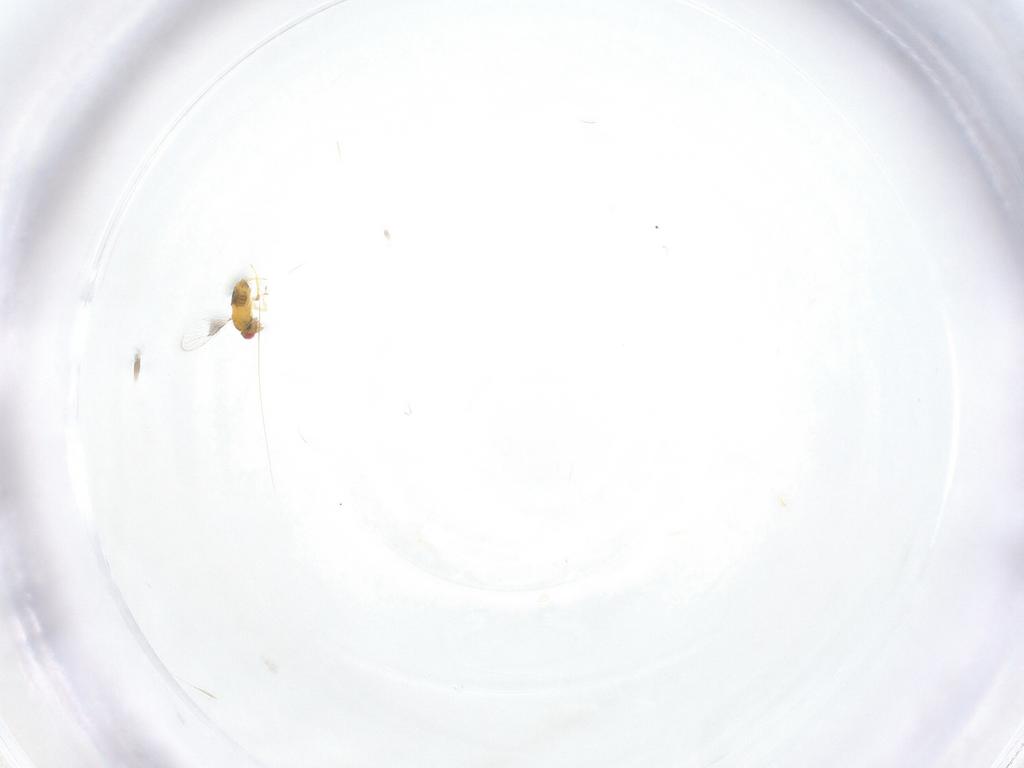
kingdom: Animalia
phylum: Arthropoda
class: Insecta
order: Hymenoptera
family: Trichogrammatidae
